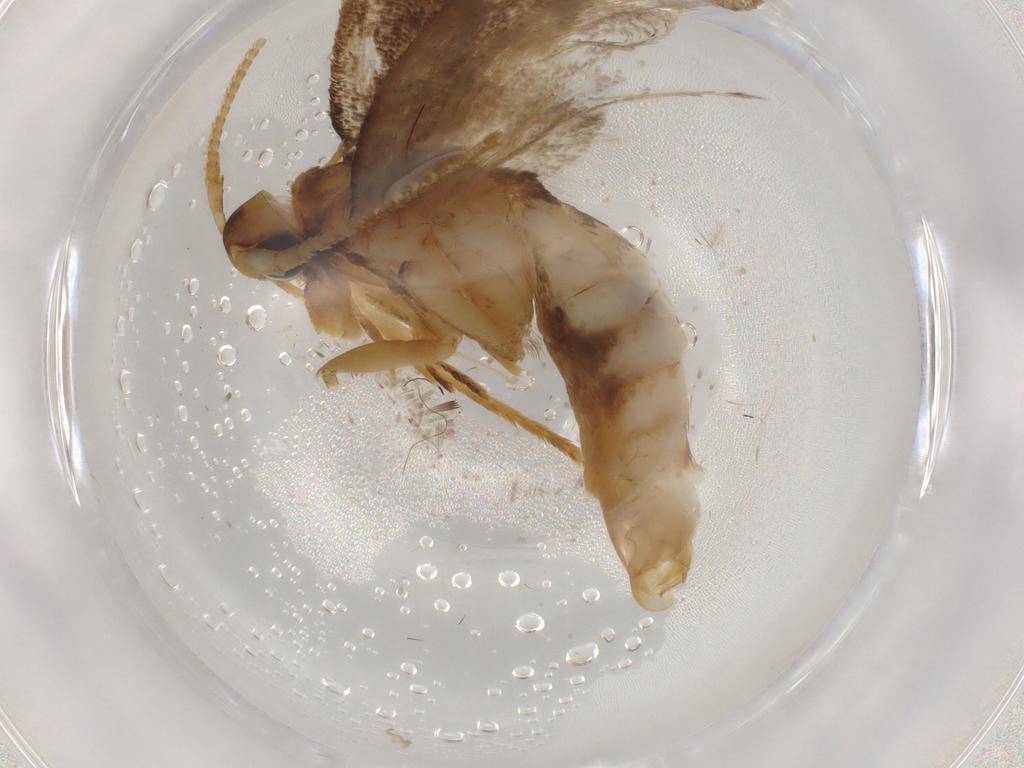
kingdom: Animalia
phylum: Arthropoda
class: Insecta
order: Lepidoptera
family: Lecithoceridae
